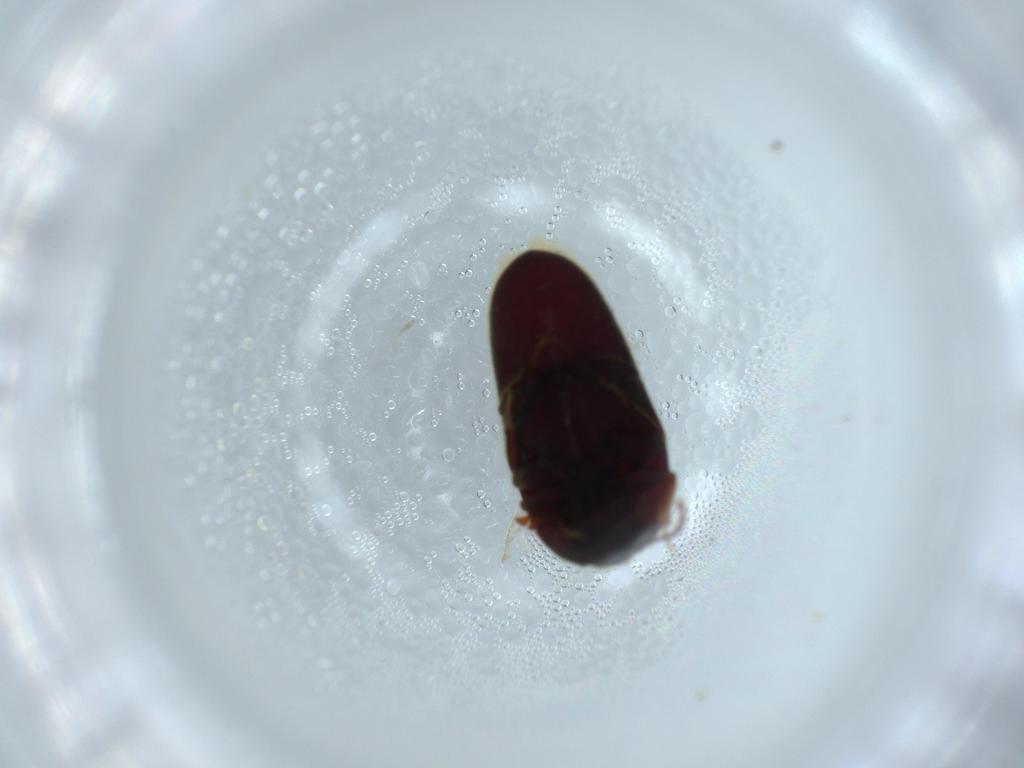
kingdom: Animalia
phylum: Arthropoda
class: Insecta
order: Coleoptera
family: Throscidae
